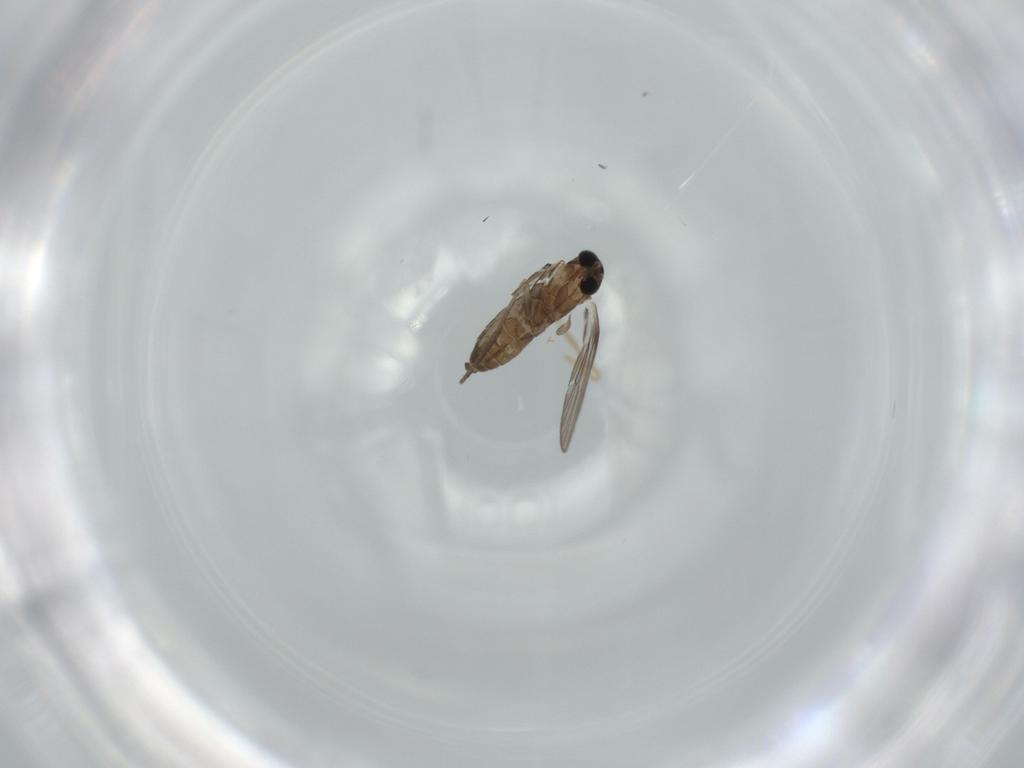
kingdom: Animalia
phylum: Arthropoda
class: Insecta
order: Diptera
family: Psychodidae
